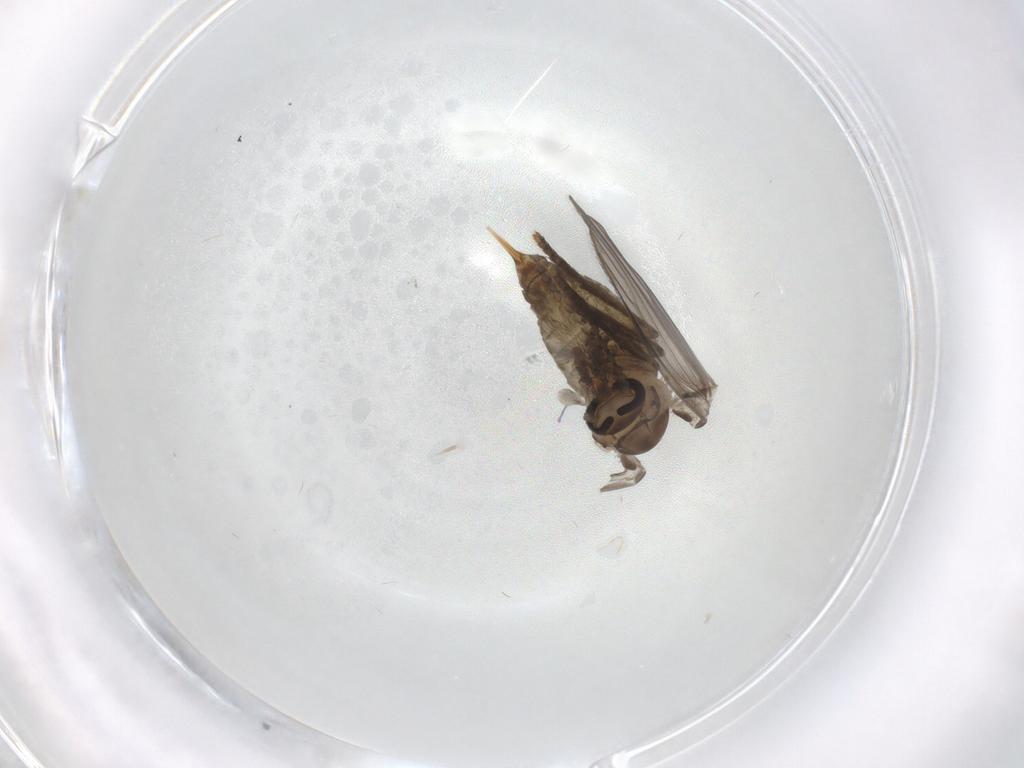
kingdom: Animalia
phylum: Arthropoda
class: Insecta
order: Diptera
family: Psychodidae
